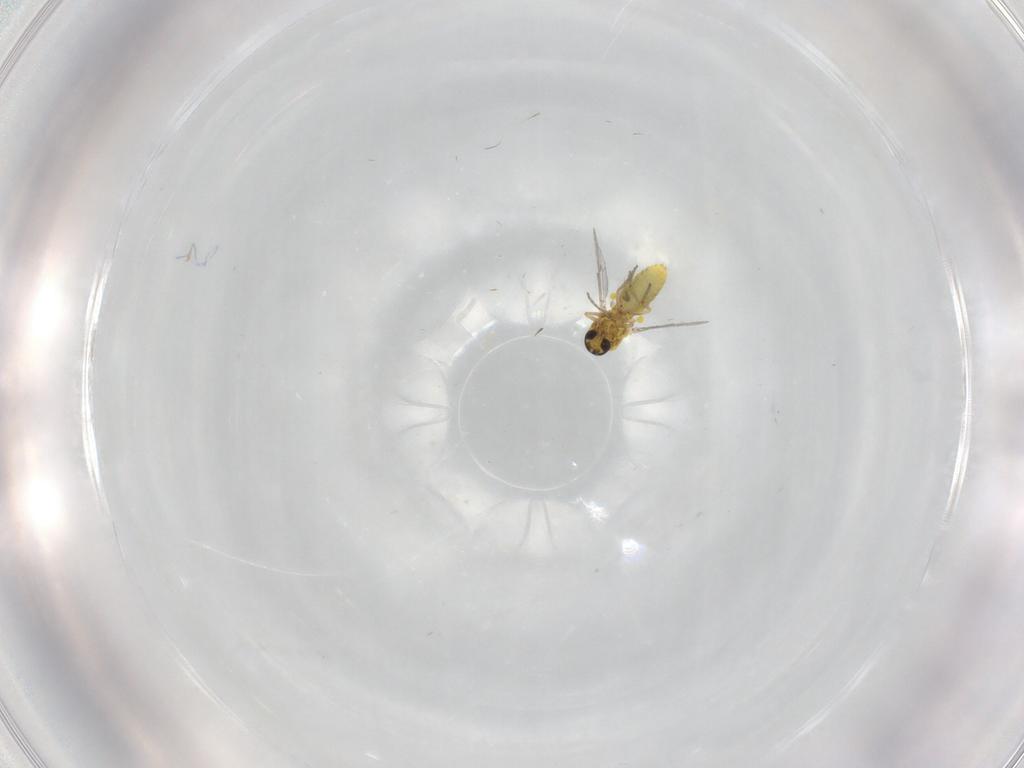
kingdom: Animalia
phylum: Arthropoda
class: Insecta
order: Diptera
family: Ceratopogonidae
